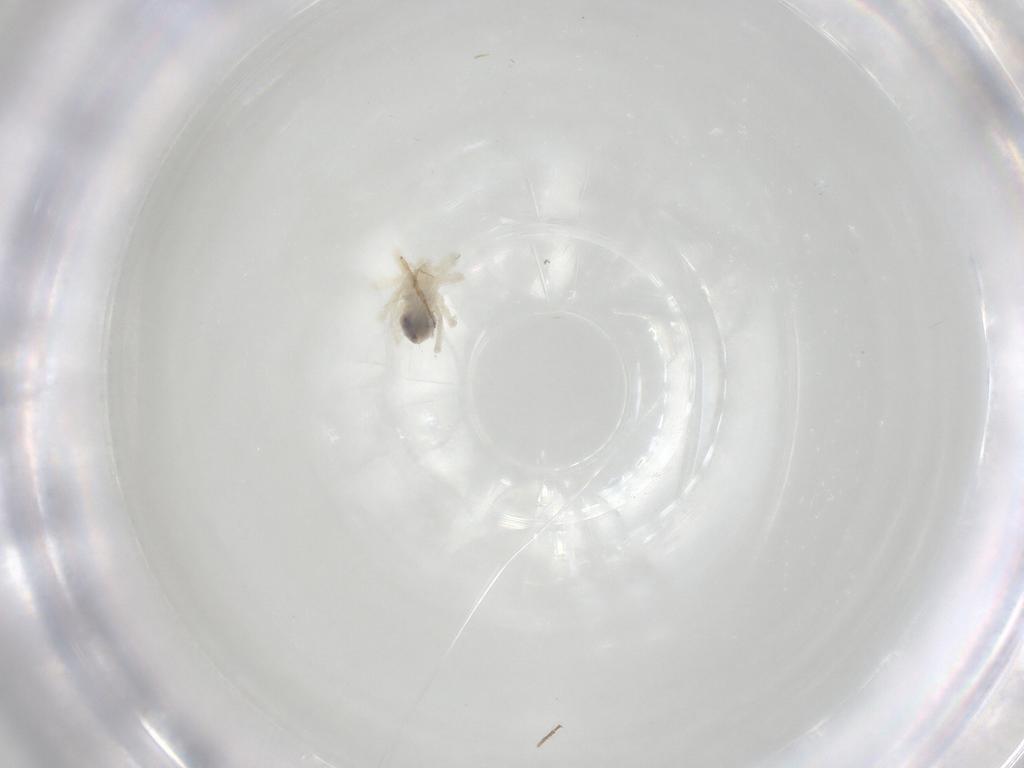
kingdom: Animalia
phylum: Arthropoda
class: Arachnida
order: Trombidiformes
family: Anystidae
